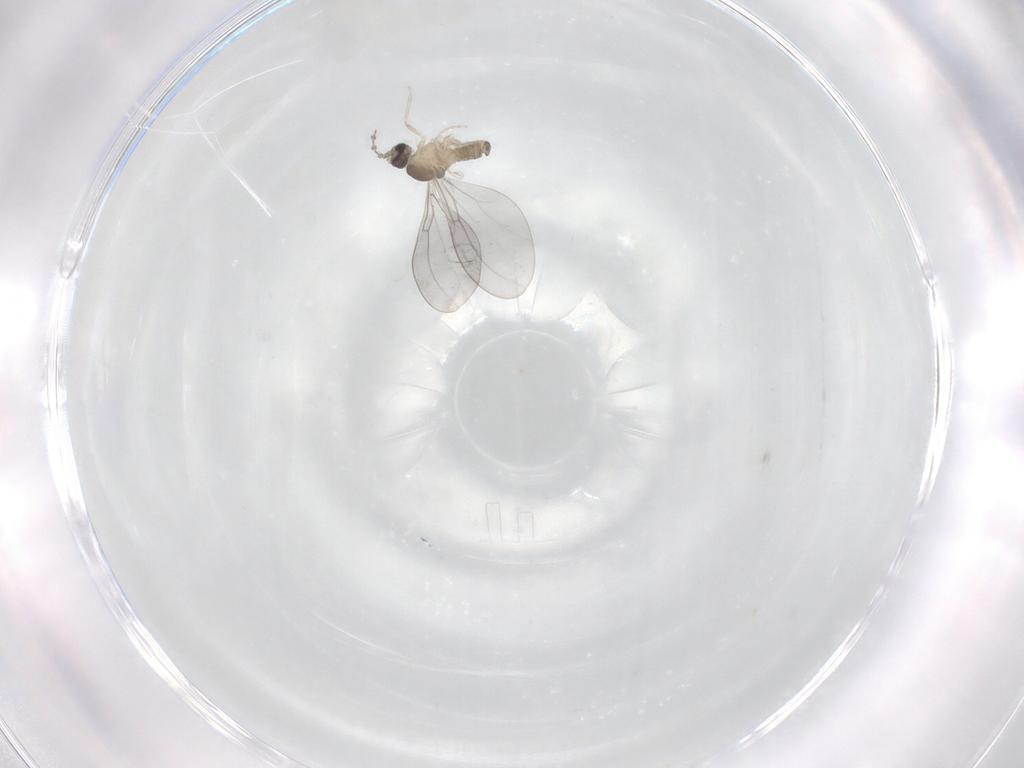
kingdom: Animalia
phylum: Arthropoda
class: Insecta
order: Diptera
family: Cecidomyiidae
